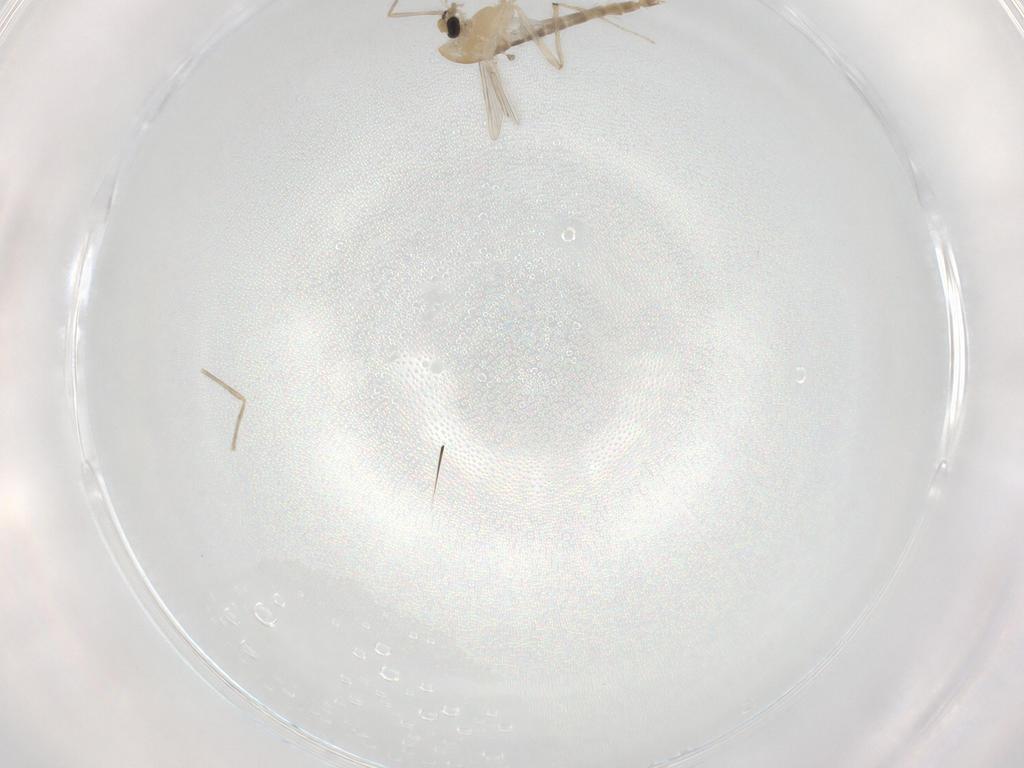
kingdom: Animalia
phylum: Arthropoda
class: Insecta
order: Diptera
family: Chironomidae
